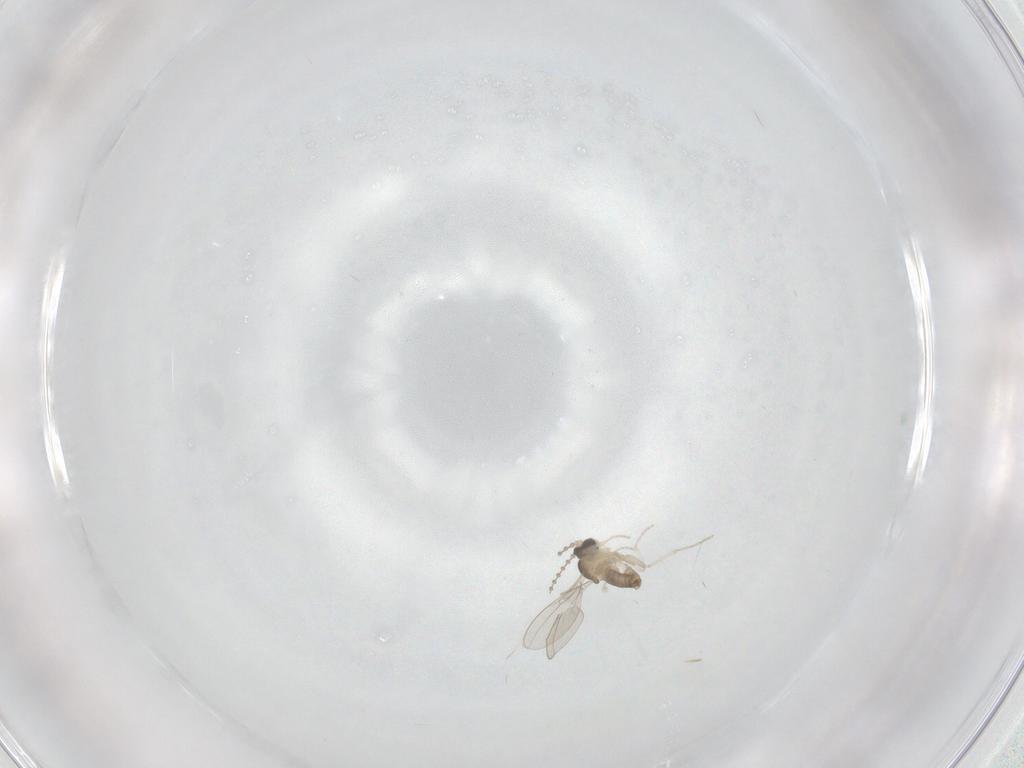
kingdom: Animalia
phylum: Arthropoda
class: Insecta
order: Diptera
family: Cecidomyiidae
